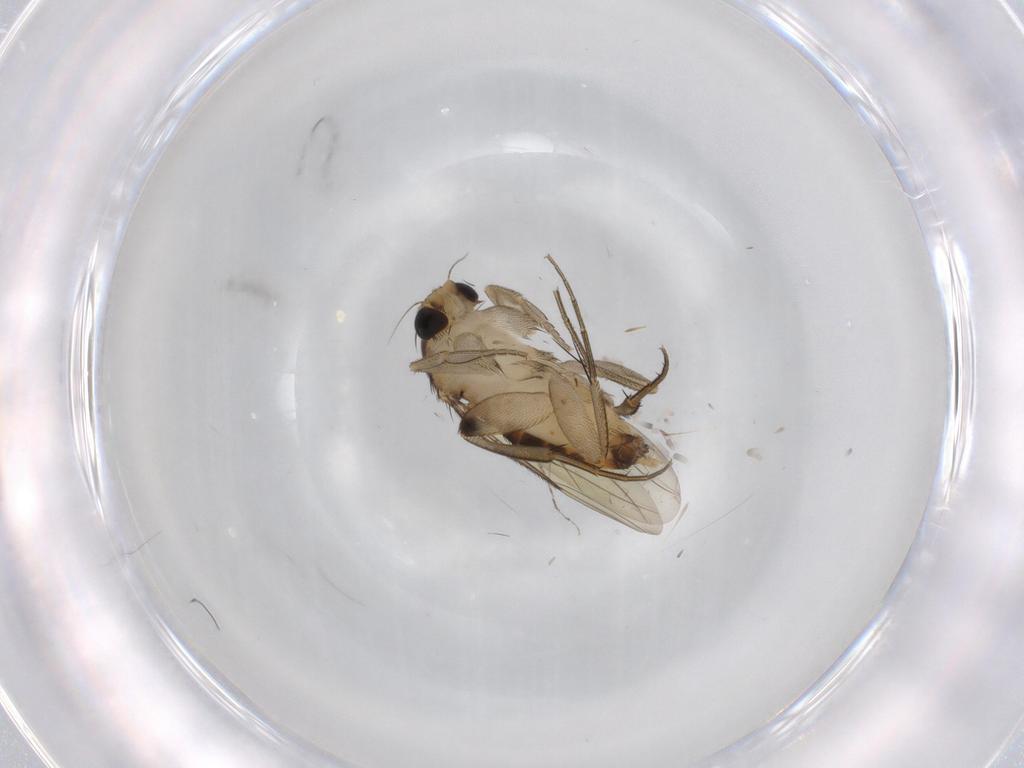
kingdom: Animalia
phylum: Arthropoda
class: Insecta
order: Diptera
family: Phoridae
